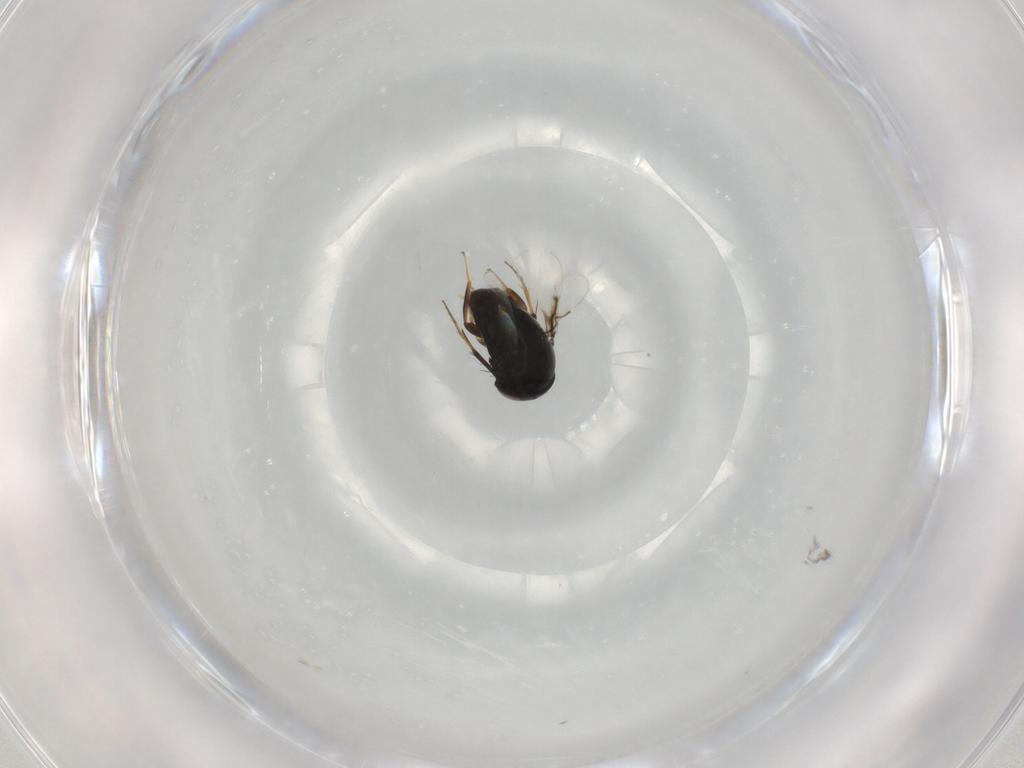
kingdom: Animalia
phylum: Arthropoda
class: Insecta
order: Hymenoptera
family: Signiphoridae
